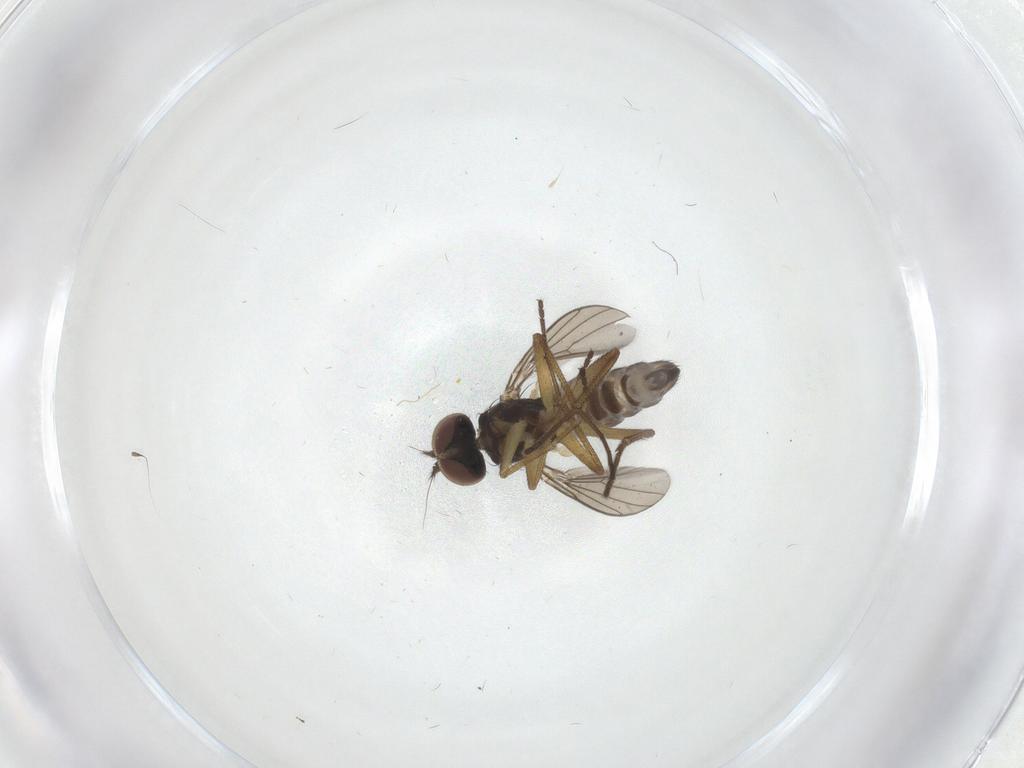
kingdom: Animalia
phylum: Arthropoda
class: Insecta
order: Diptera
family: Dolichopodidae
